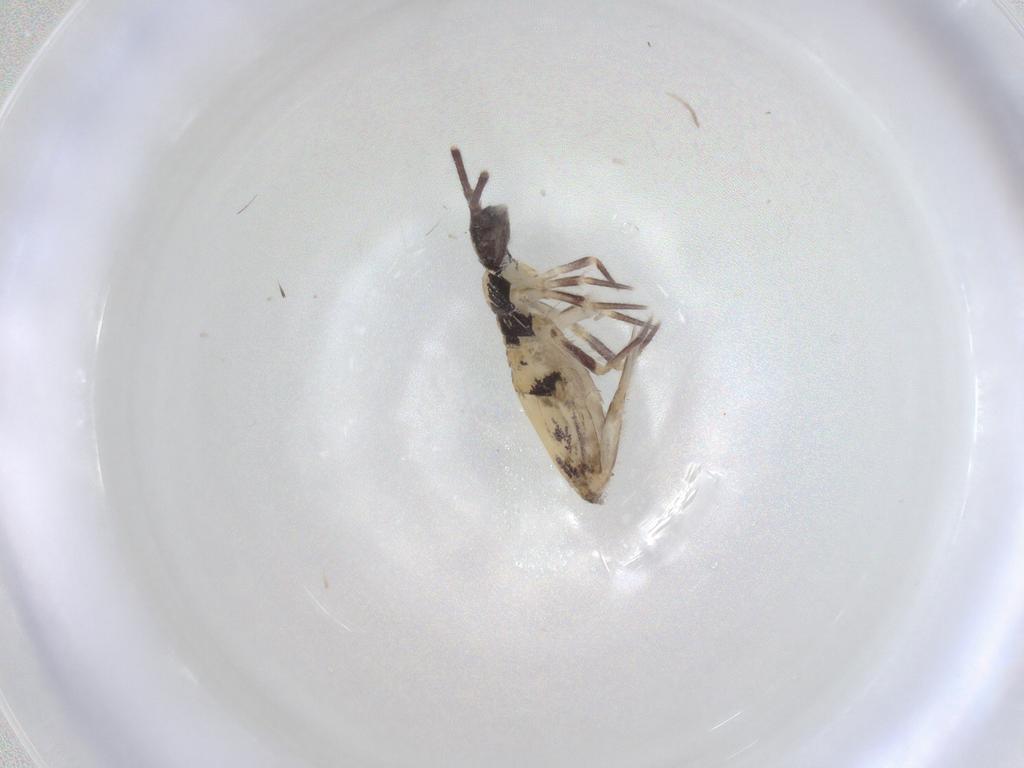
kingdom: Animalia
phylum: Arthropoda
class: Collembola
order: Entomobryomorpha
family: Entomobryidae
